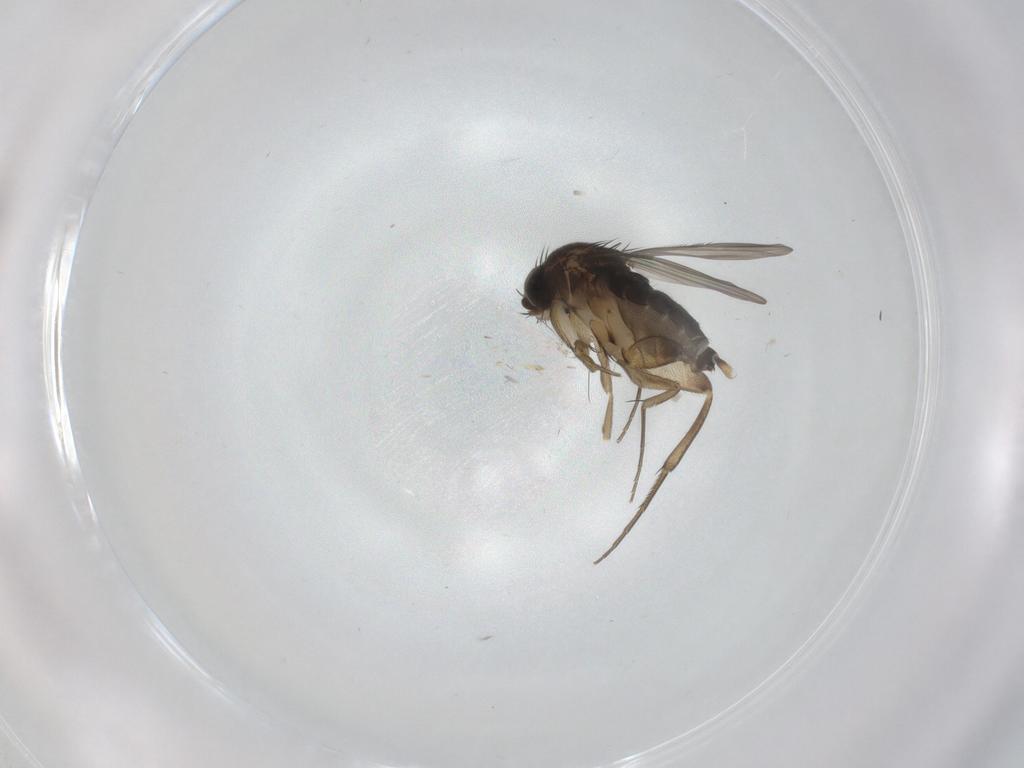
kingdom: Animalia
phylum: Arthropoda
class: Insecta
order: Diptera
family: Phoridae
